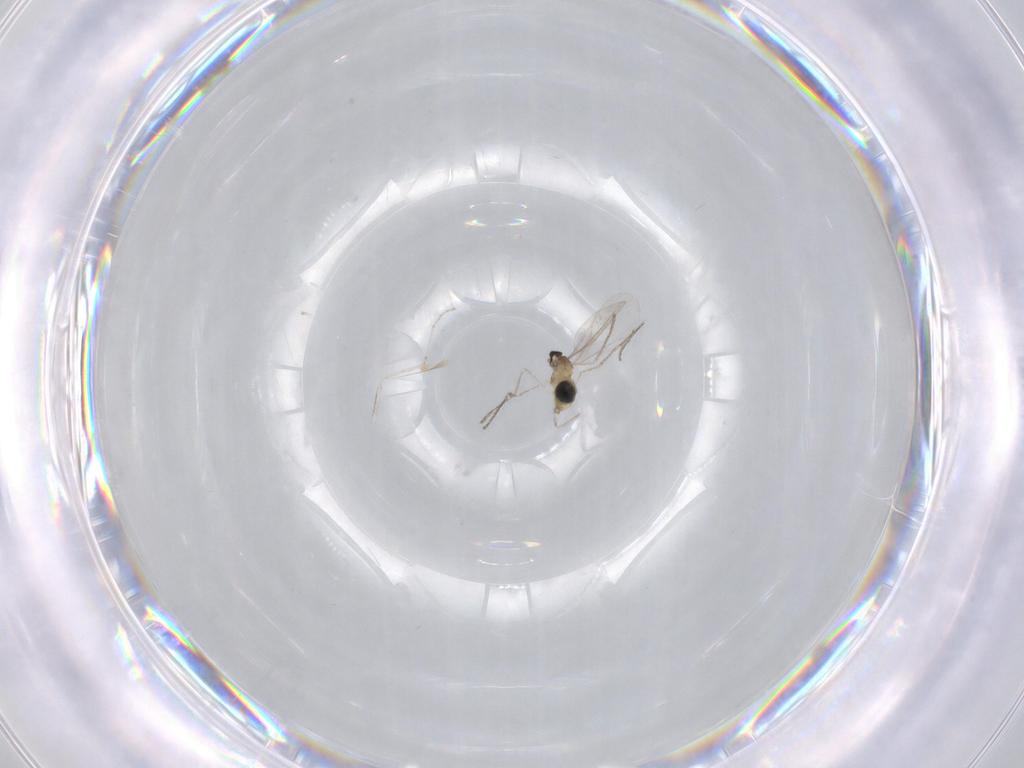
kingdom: Animalia
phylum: Arthropoda
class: Insecta
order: Diptera
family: Cecidomyiidae
